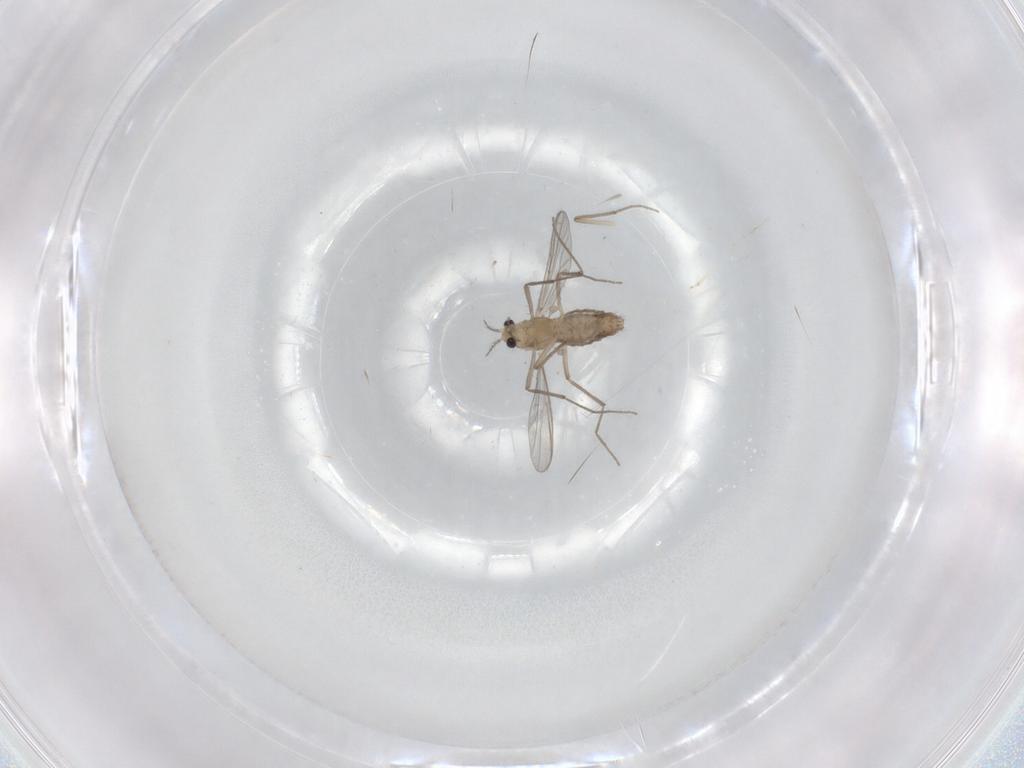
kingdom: Animalia
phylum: Arthropoda
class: Insecta
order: Diptera
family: Chironomidae
